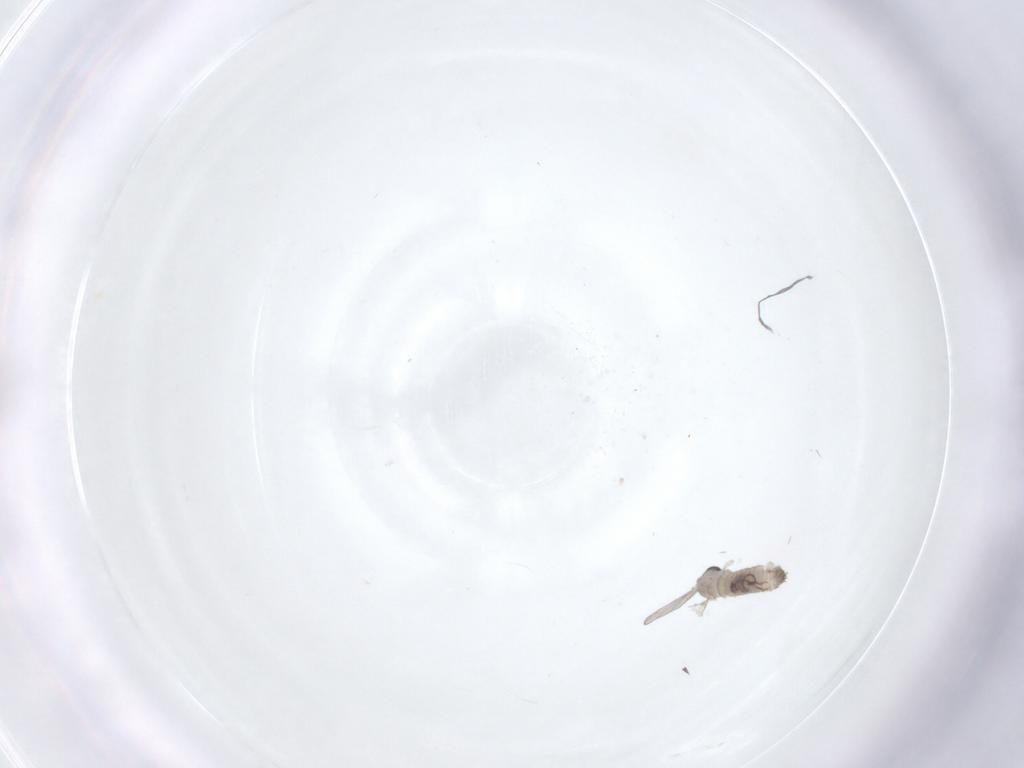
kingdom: Animalia
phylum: Arthropoda
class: Insecta
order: Diptera
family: Psychodidae
